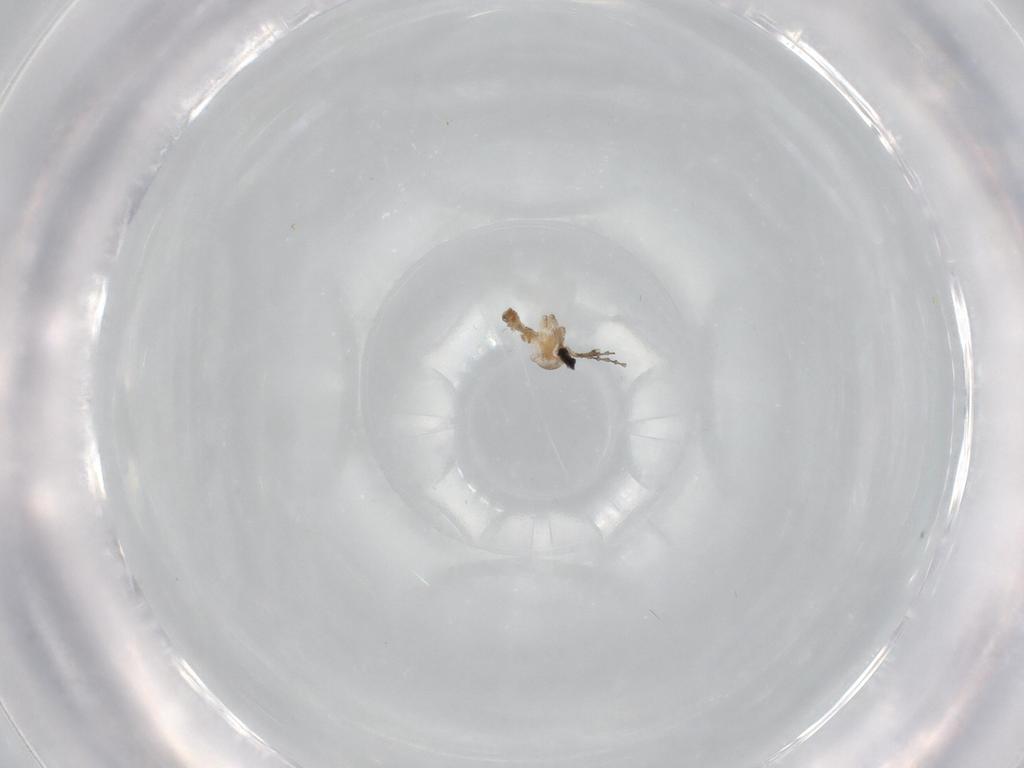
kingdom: Animalia
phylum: Arthropoda
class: Insecta
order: Diptera
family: Cecidomyiidae
